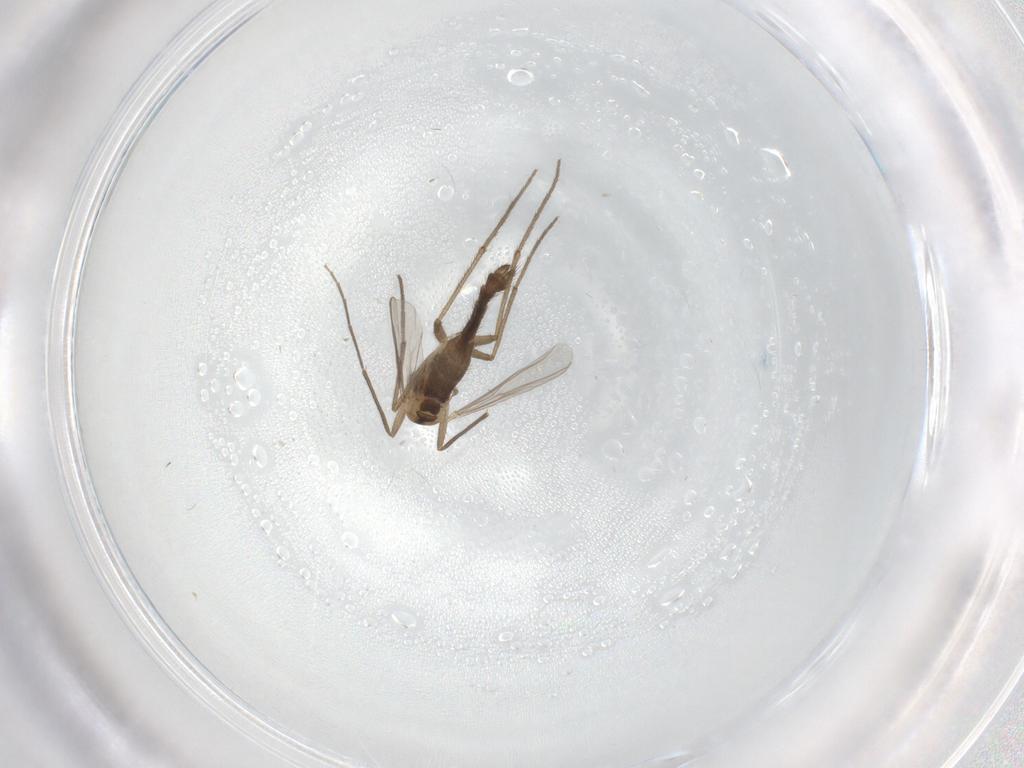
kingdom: Animalia
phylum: Arthropoda
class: Insecta
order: Diptera
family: Chironomidae
